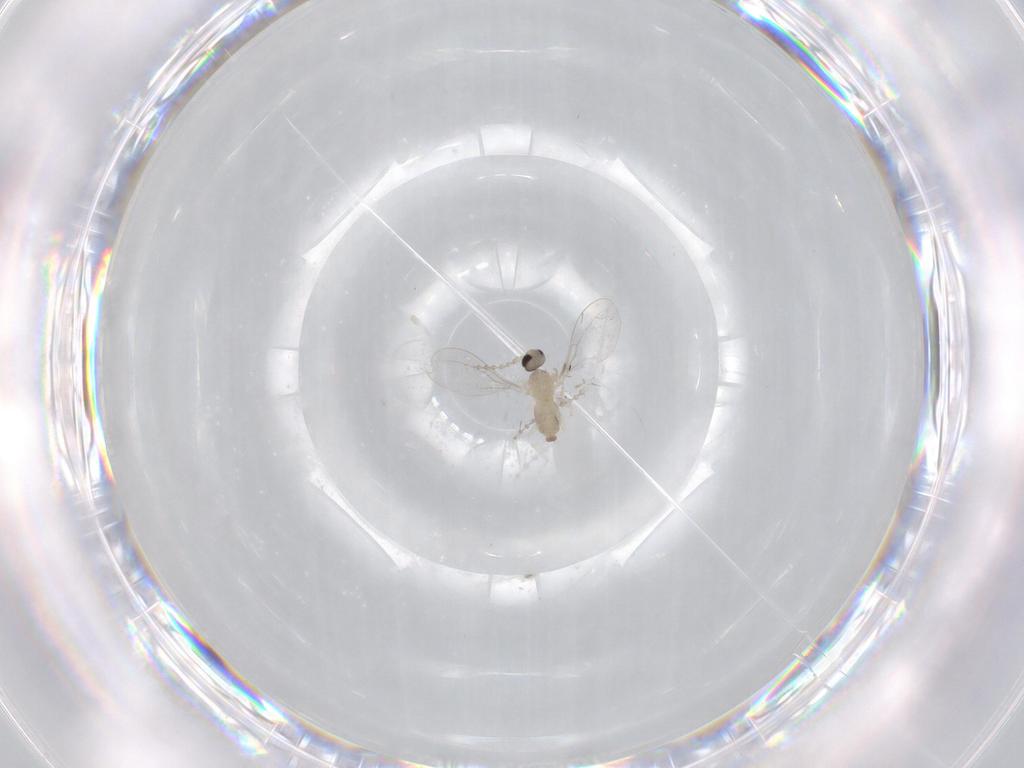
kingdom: Animalia
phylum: Arthropoda
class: Insecta
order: Diptera
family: Cecidomyiidae
